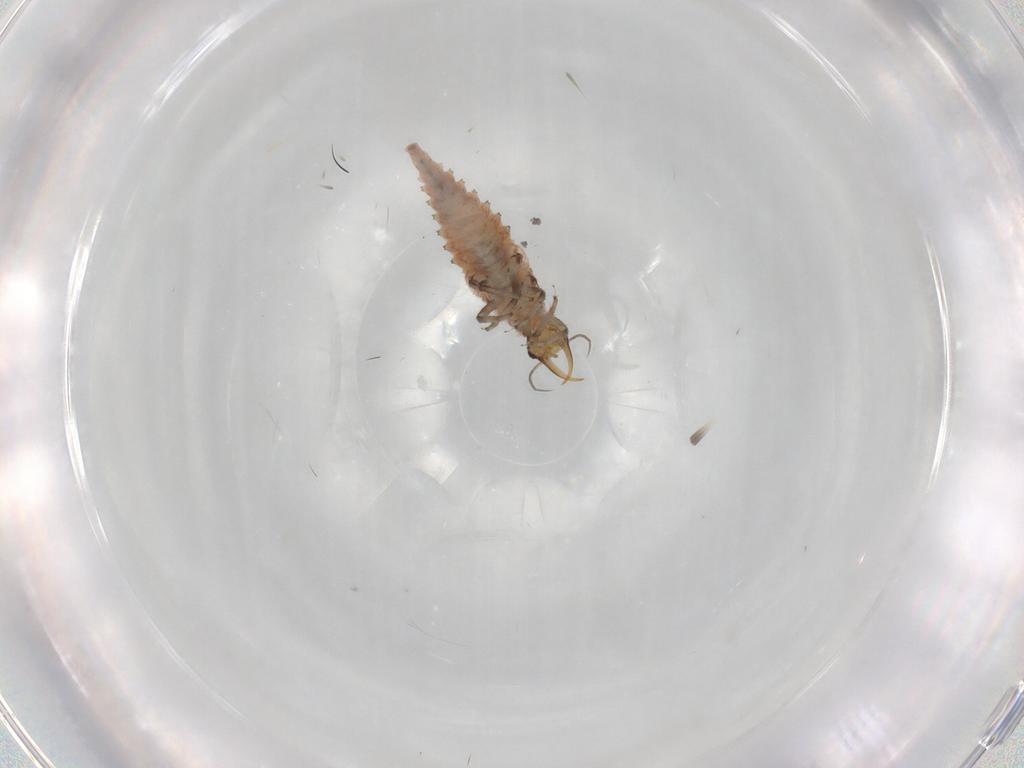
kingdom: Animalia
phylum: Arthropoda
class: Insecta
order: Neuroptera
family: Chrysopidae
